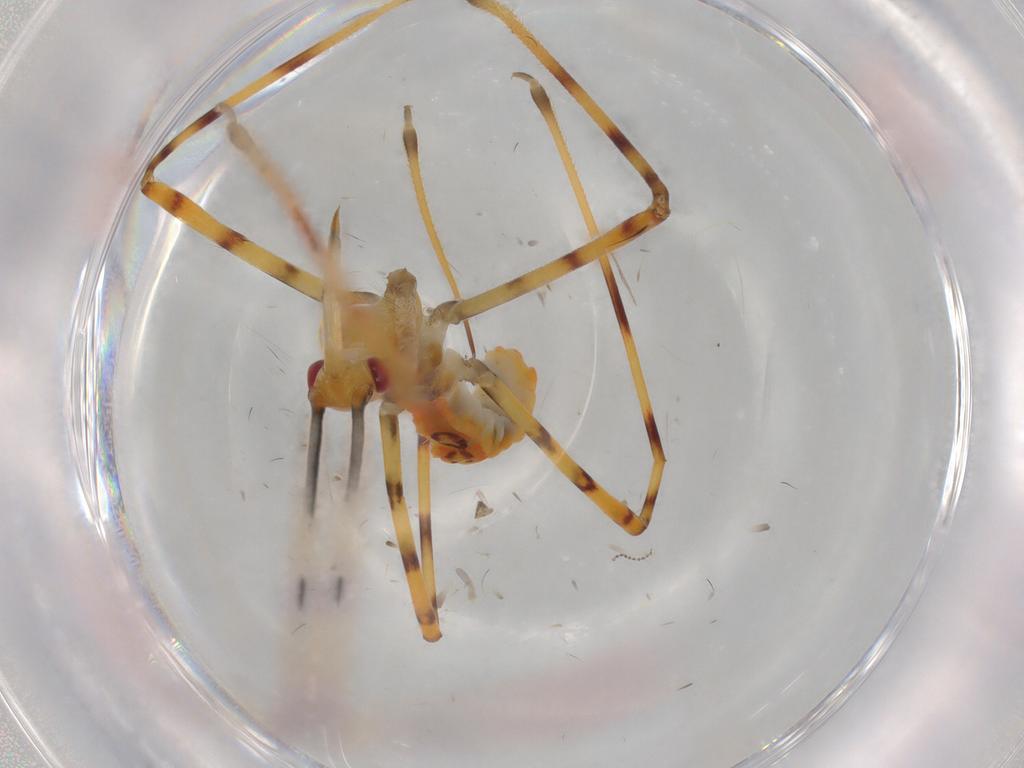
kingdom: Animalia
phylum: Arthropoda
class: Insecta
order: Hemiptera
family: Reduviidae
